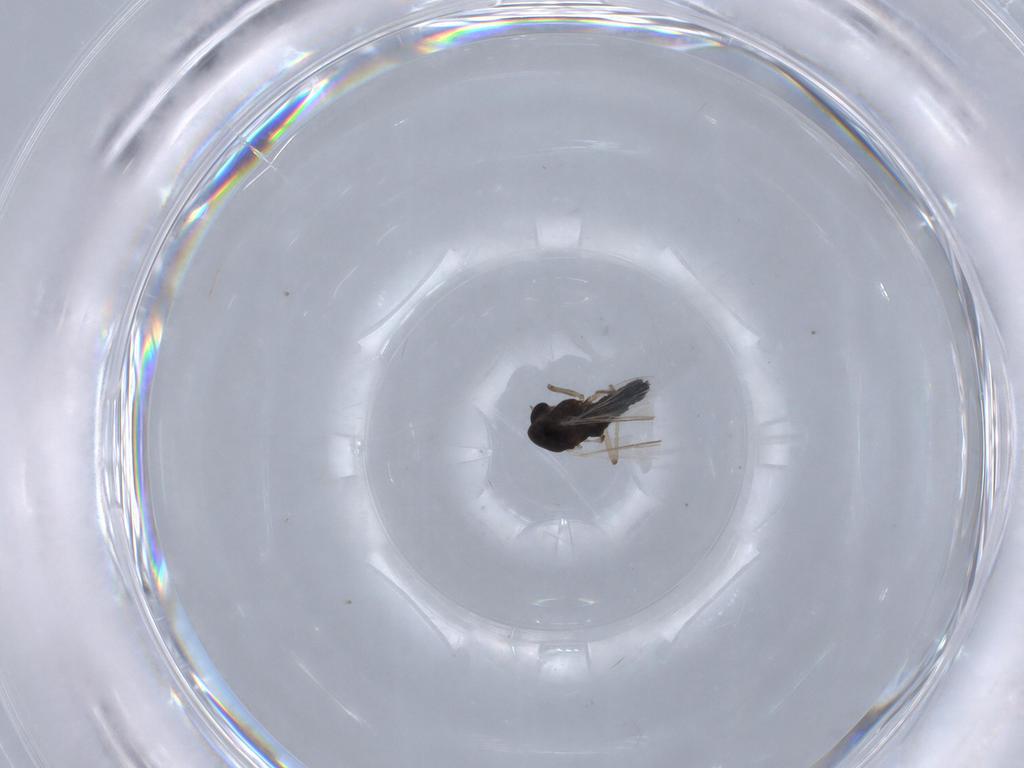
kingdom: Animalia
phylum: Arthropoda
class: Insecta
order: Diptera
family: Chironomidae
